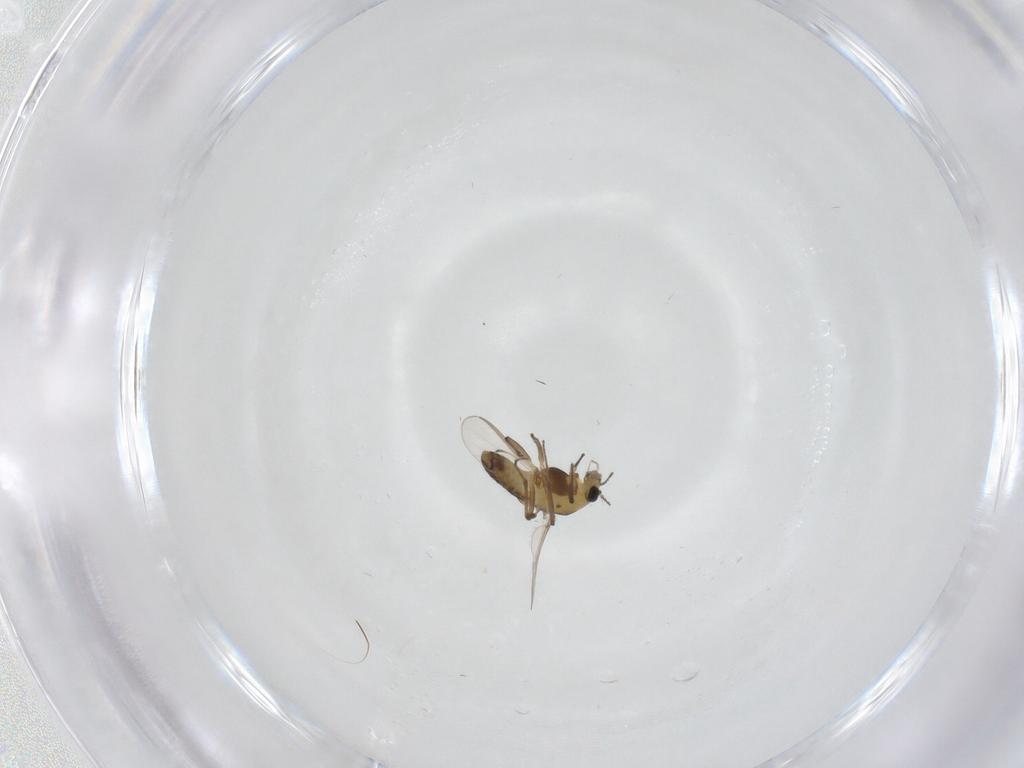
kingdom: Animalia
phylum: Arthropoda
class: Insecta
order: Diptera
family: Chironomidae
